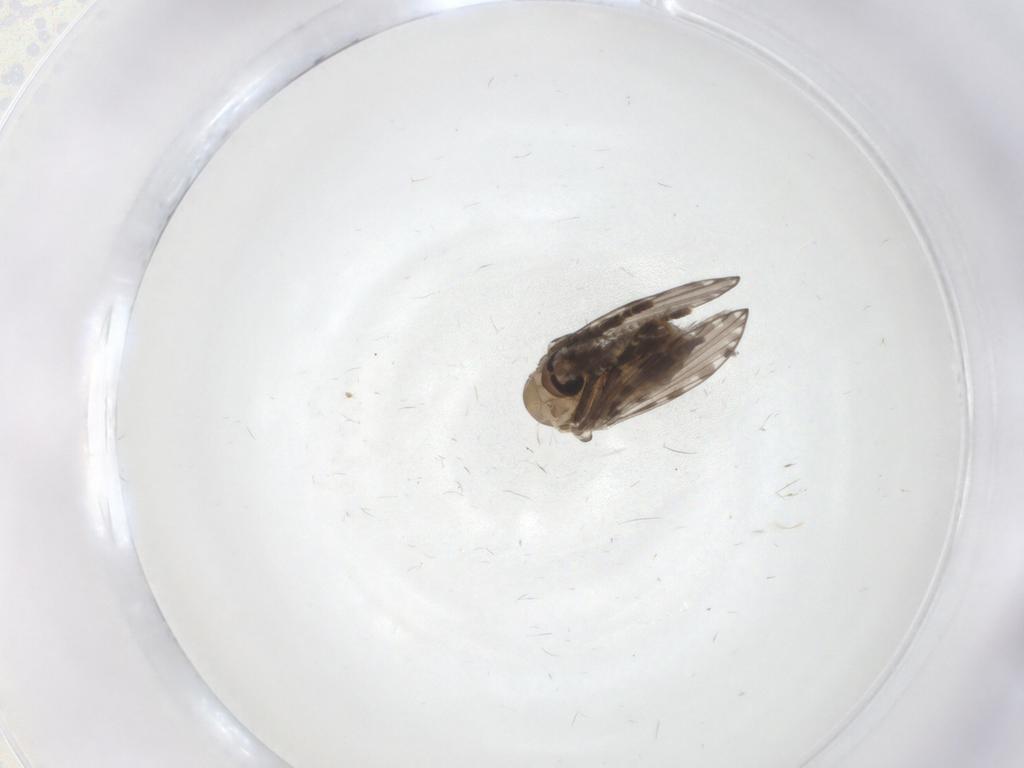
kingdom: Animalia
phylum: Arthropoda
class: Insecta
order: Diptera
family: Psychodidae
